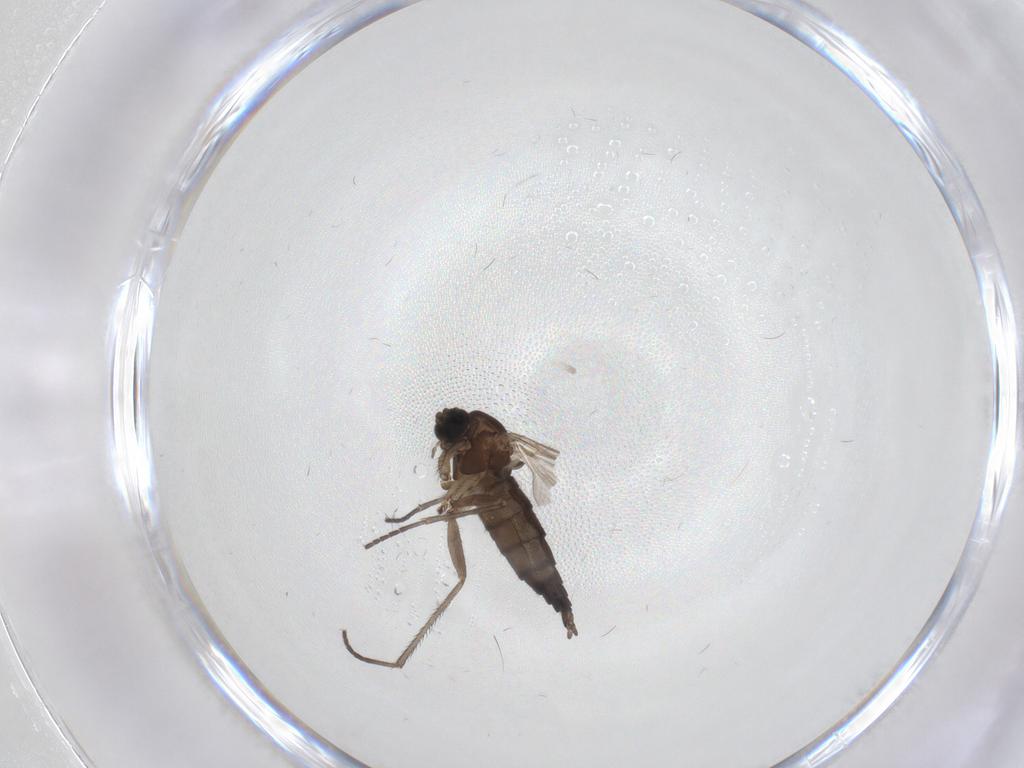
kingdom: Animalia
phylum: Arthropoda
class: Insecta
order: Diptera
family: Sciaridae
